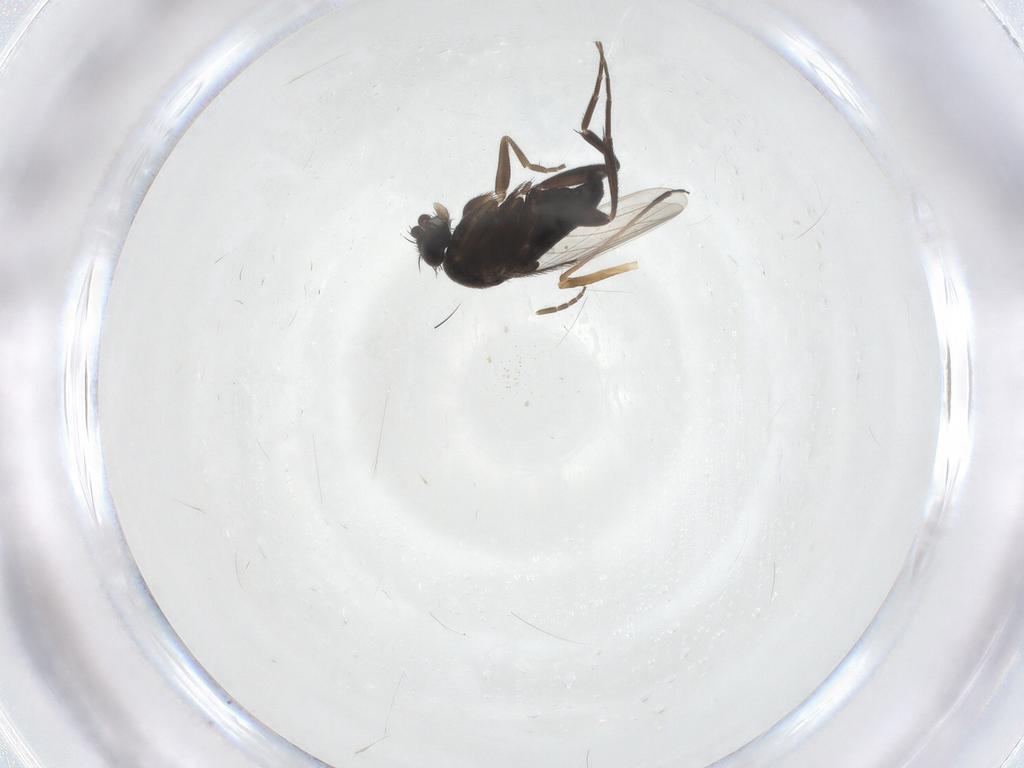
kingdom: Animalia
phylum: Arthropoda
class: Insecta
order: Diptera
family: Phoridae
